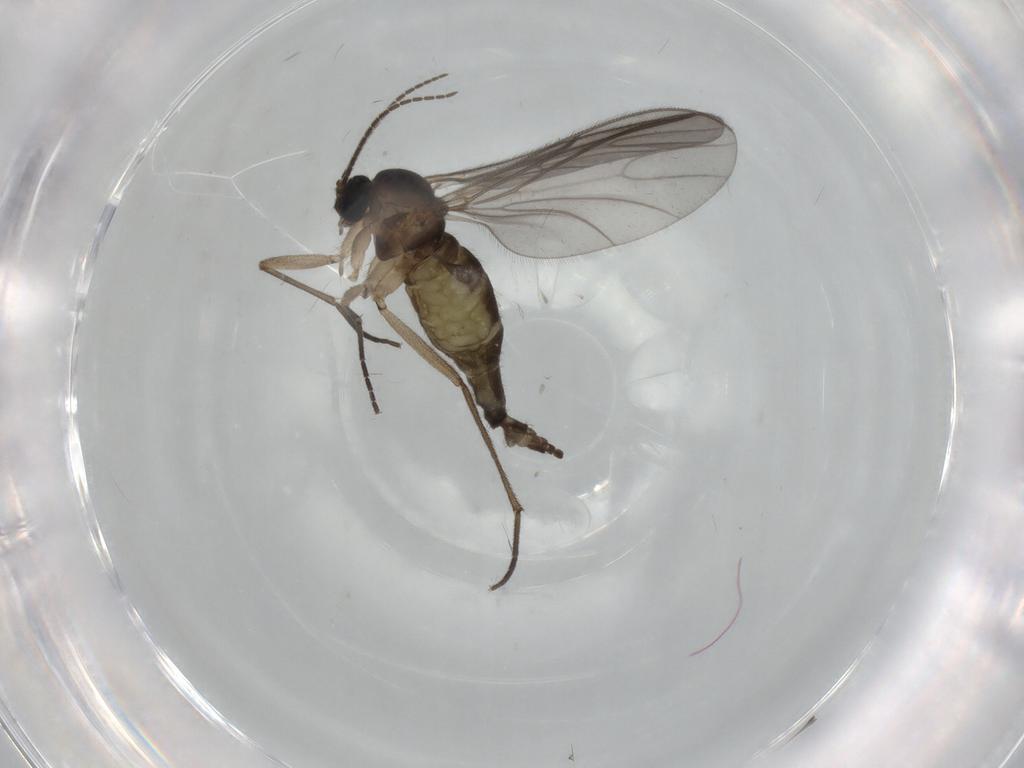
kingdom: Animalia
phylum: Arthropoda
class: Insecta
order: Diptera
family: Sciaridae
